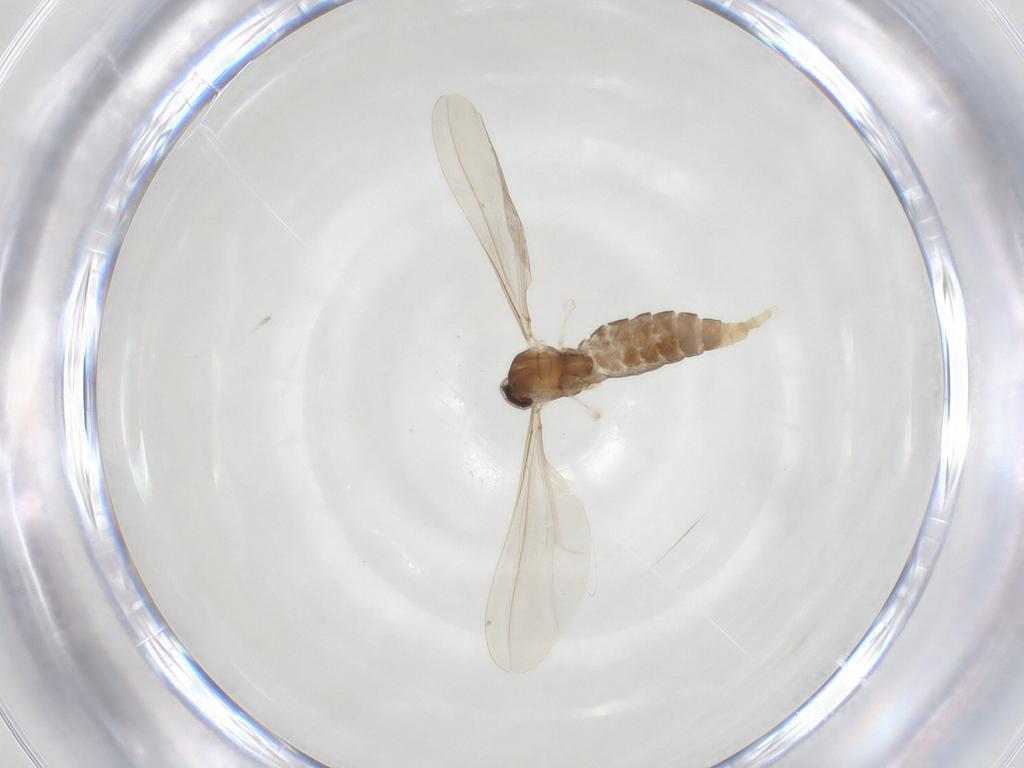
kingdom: Animalia
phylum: Arthropoda
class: Insecta
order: Diptera
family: Cecidomyiidae
